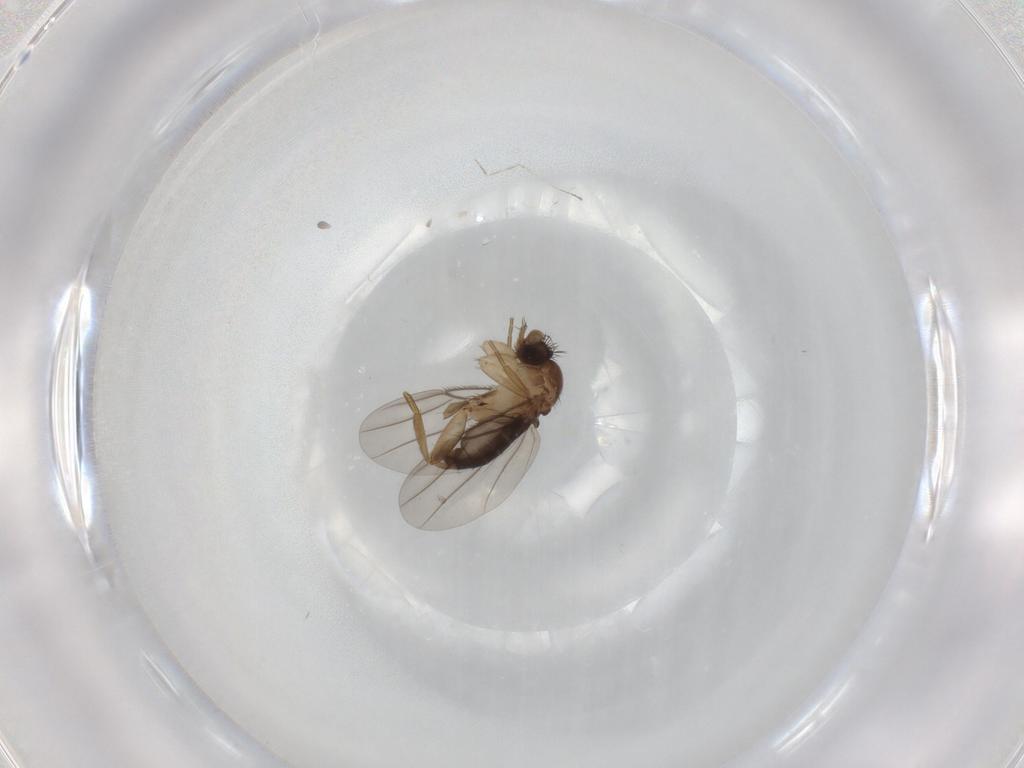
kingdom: Animalia
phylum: Arthropoda
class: Insecta
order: Diptera
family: Phoridae
